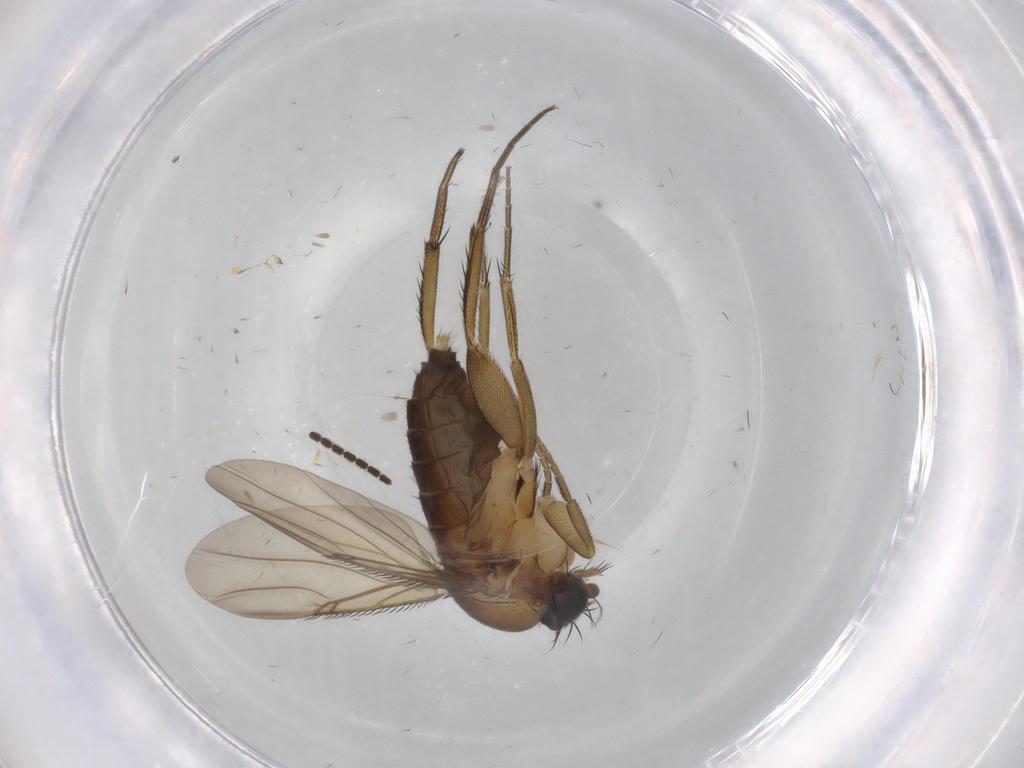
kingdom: Animalia
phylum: Arthropoda
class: Insecta
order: Diptera
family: Phoridae
